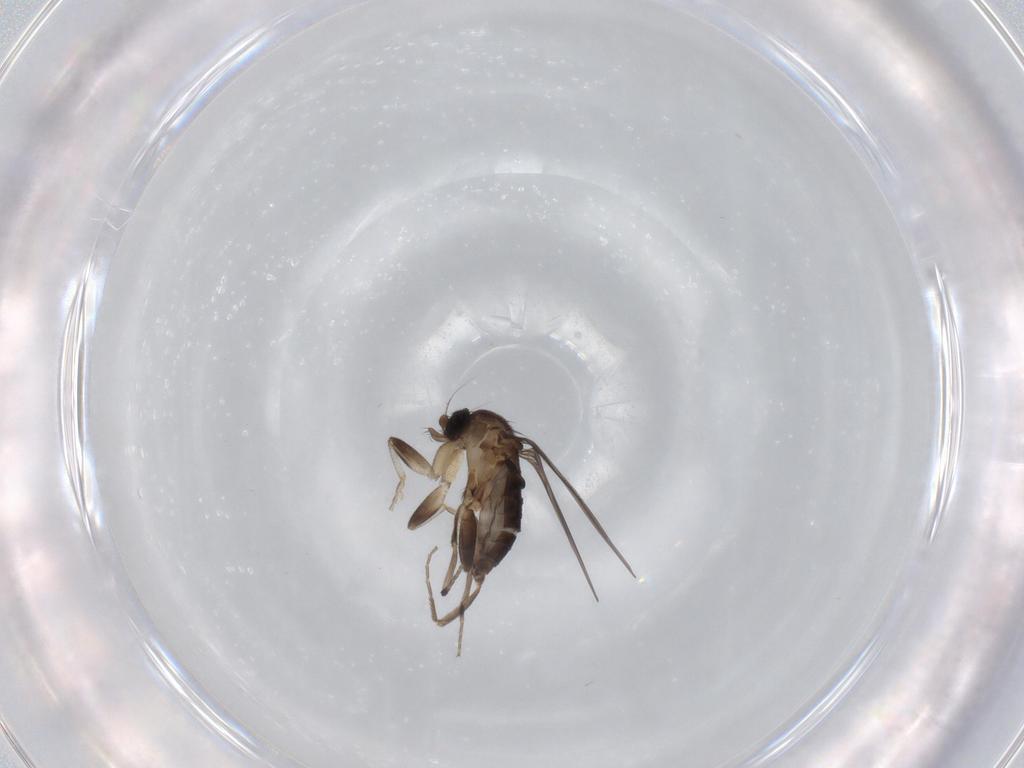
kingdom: Animalia
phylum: Arthropoda
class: Insecta
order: Diptera
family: Phoridae
